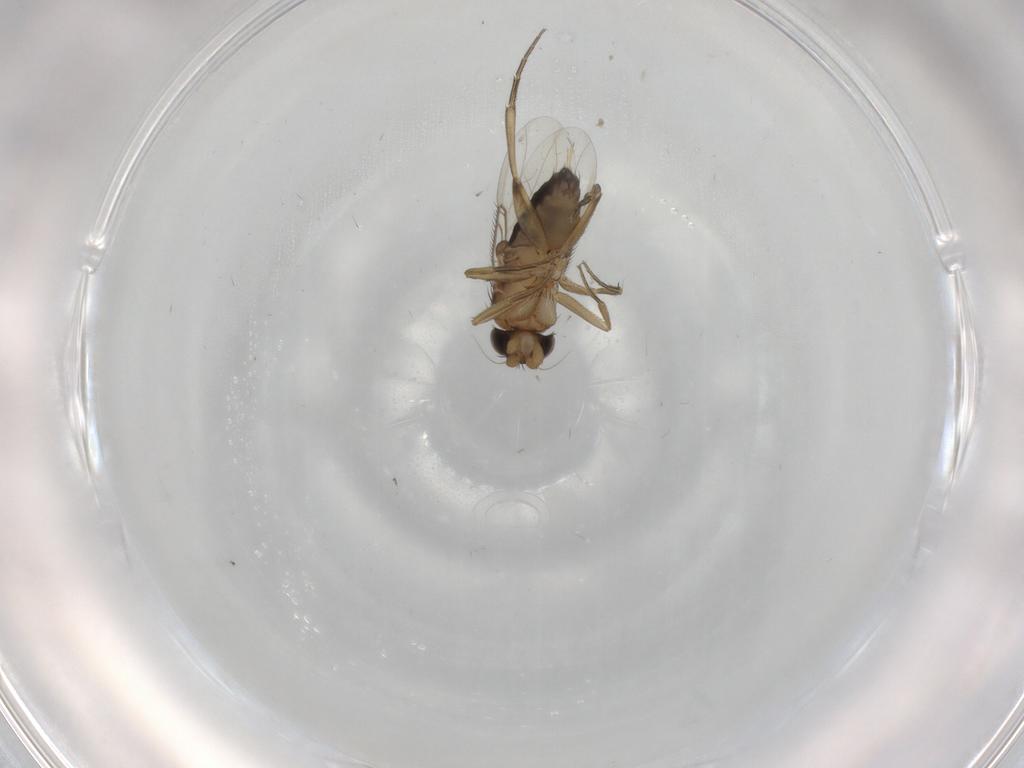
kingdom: Animalia
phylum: Arthropoda
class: Insecta
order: Diptera
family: Phoridae
